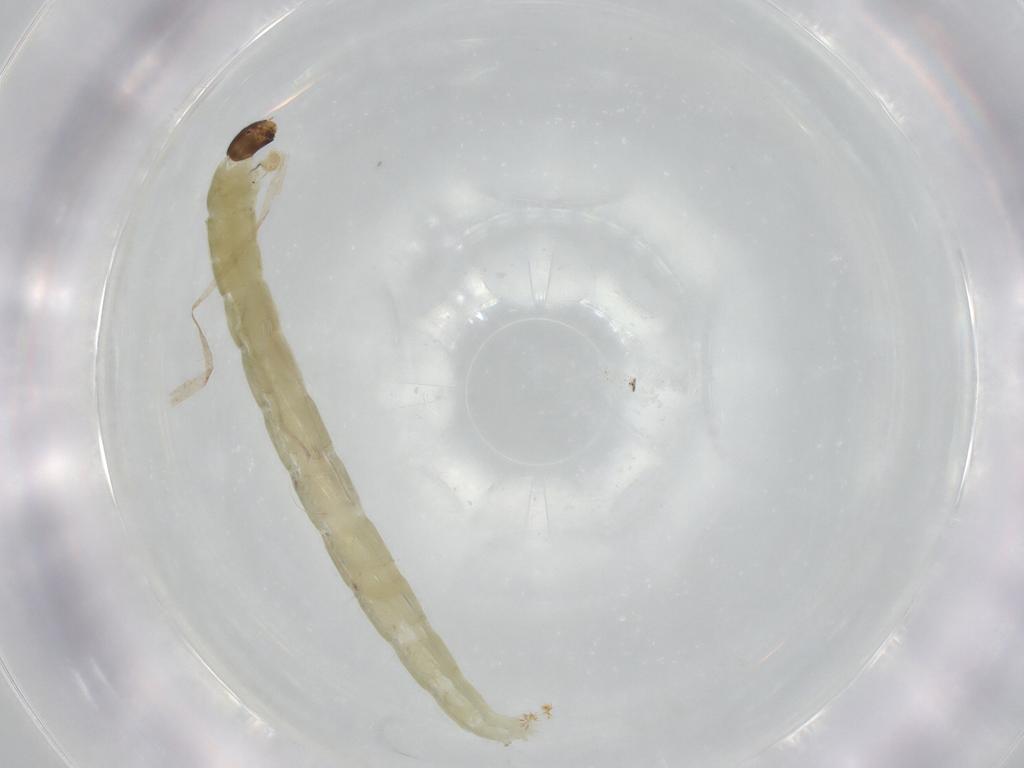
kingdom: Animalia
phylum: Arthropoda
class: Insecta
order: Diptera
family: Cecidomyiidae
